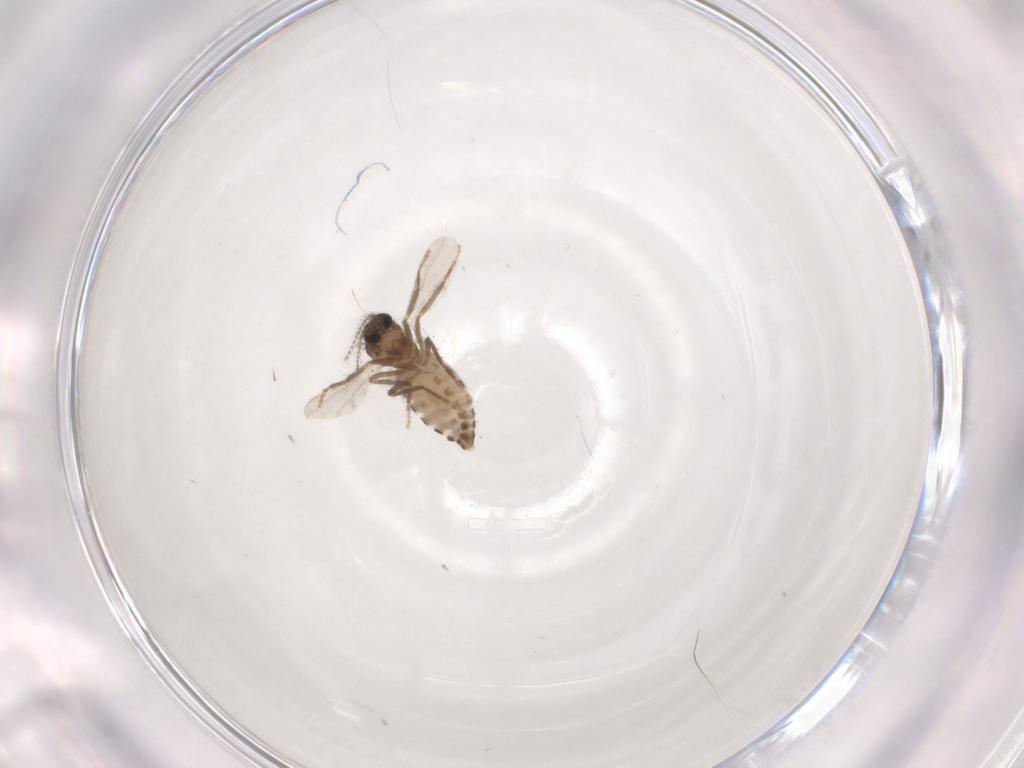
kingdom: Animalia
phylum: Arthropoda
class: Insecta
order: Diptera
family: Ceratopogonidae
